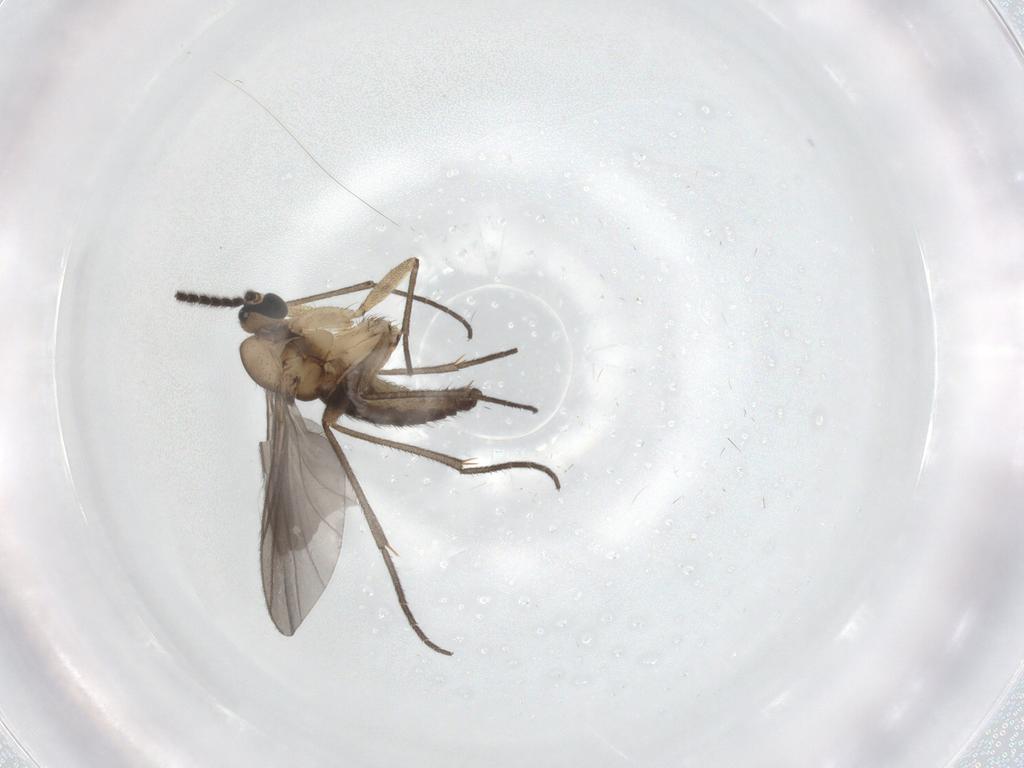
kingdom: Animalia
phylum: Arthropoda
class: Insecta
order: Diptera
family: Sciaridae
